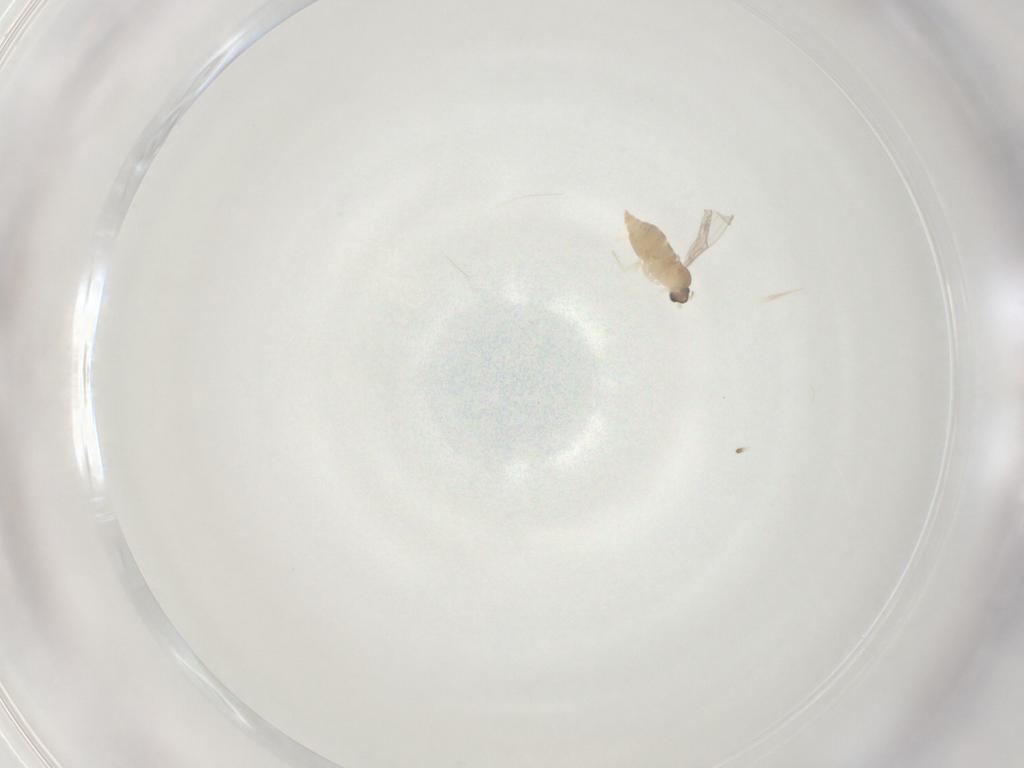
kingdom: Animalia
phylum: Arthropoda
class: Insecta
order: Diptera
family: Cecidomyiidae
